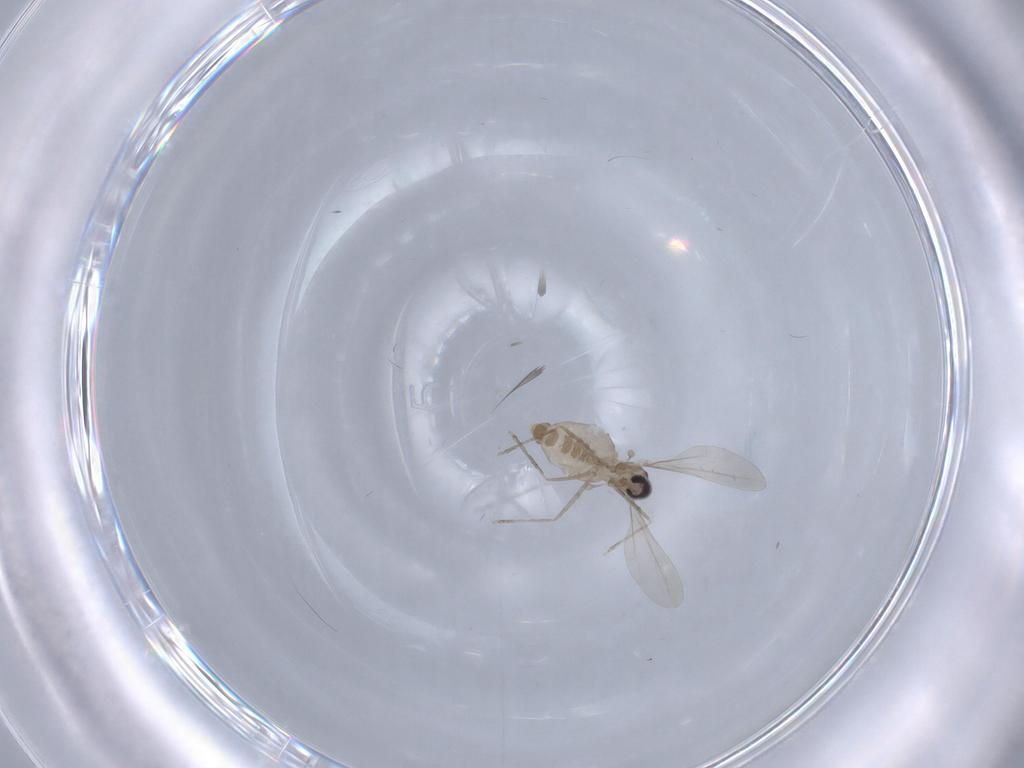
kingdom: Animalia
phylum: Arthropoda
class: Insecta
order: Diptera
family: Cecidomyiidae
